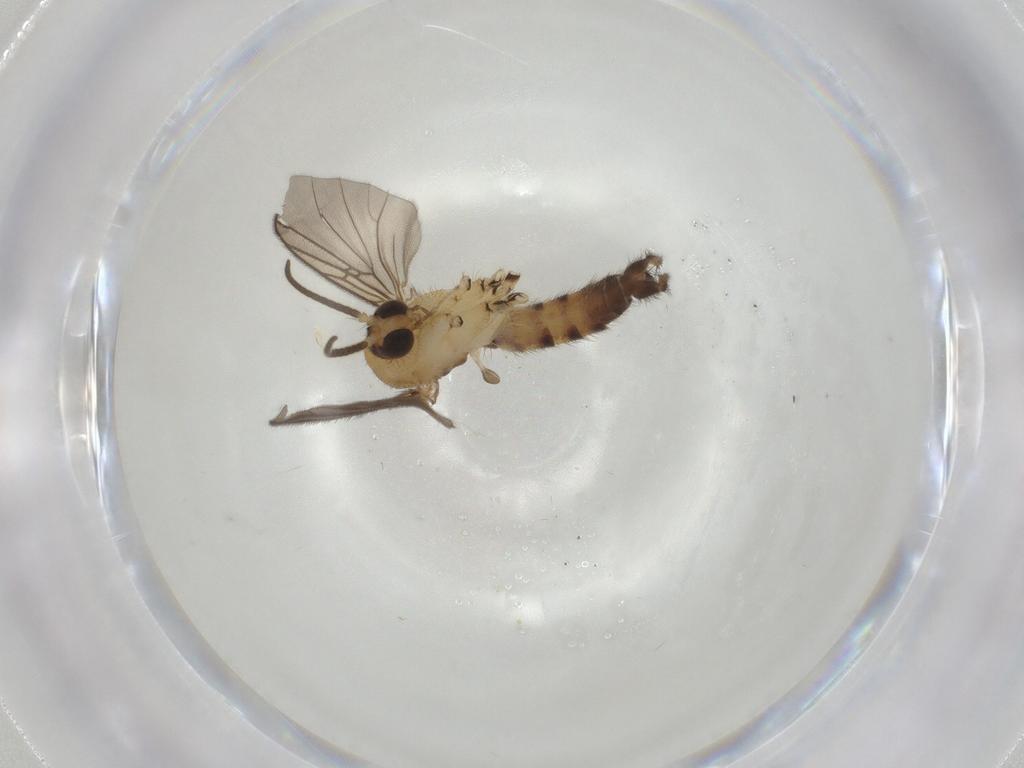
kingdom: Animalia
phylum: Arthropoda
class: Insecta
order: Diptera
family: Sciaridae
